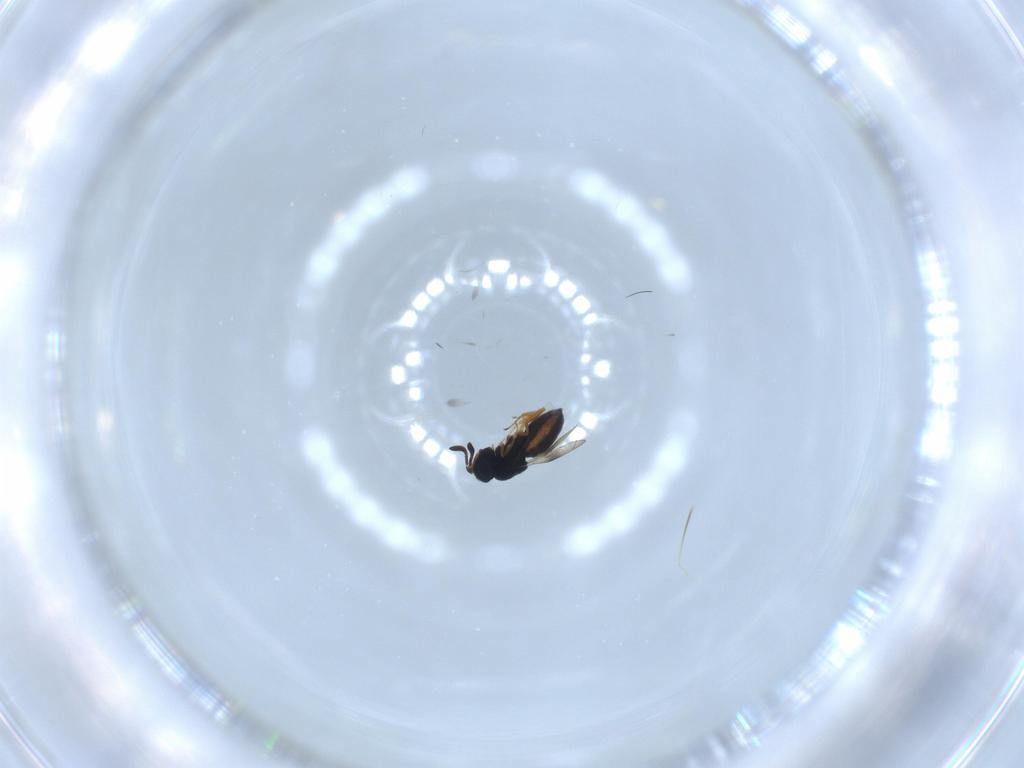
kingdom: Animalia
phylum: Arthropoda
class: Insecta
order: Hymenoptera
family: Scelionidae
